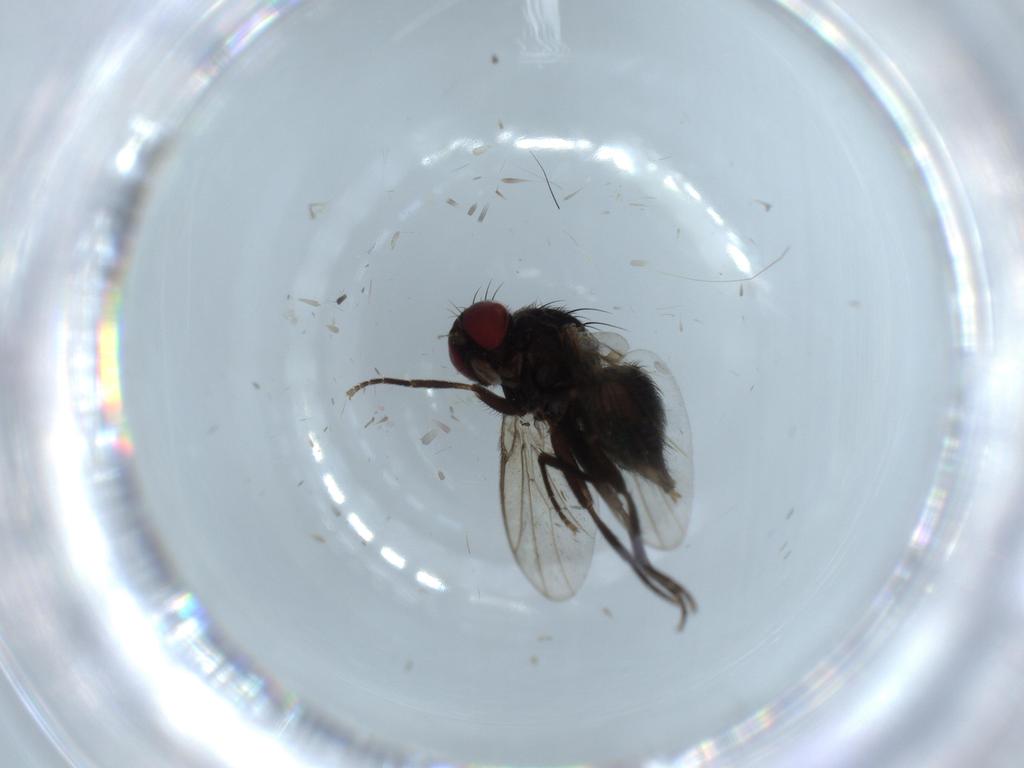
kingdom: Animalia
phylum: Arthropoda
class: Insecta
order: Diptera
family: Agromyzidae
